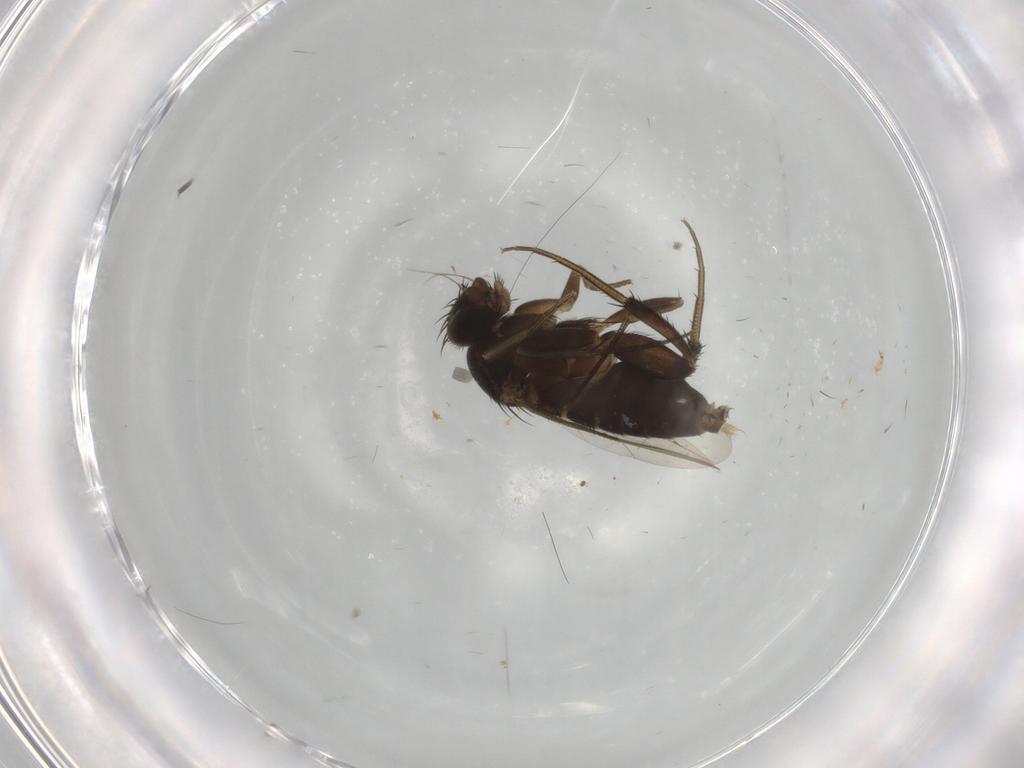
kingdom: Animalia
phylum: Arthropoda
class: Insecta
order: Diptera
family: Phoridae
